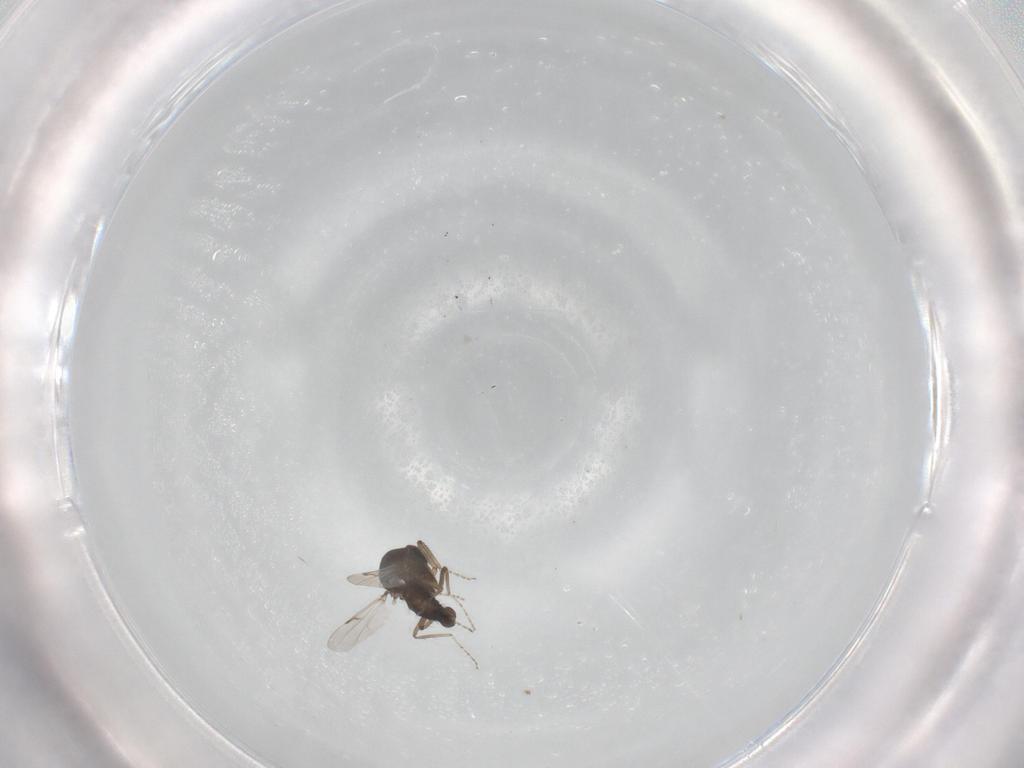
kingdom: Animalia
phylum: Arthropoda
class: Insecta
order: Diptera
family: Ceratopogonidae
